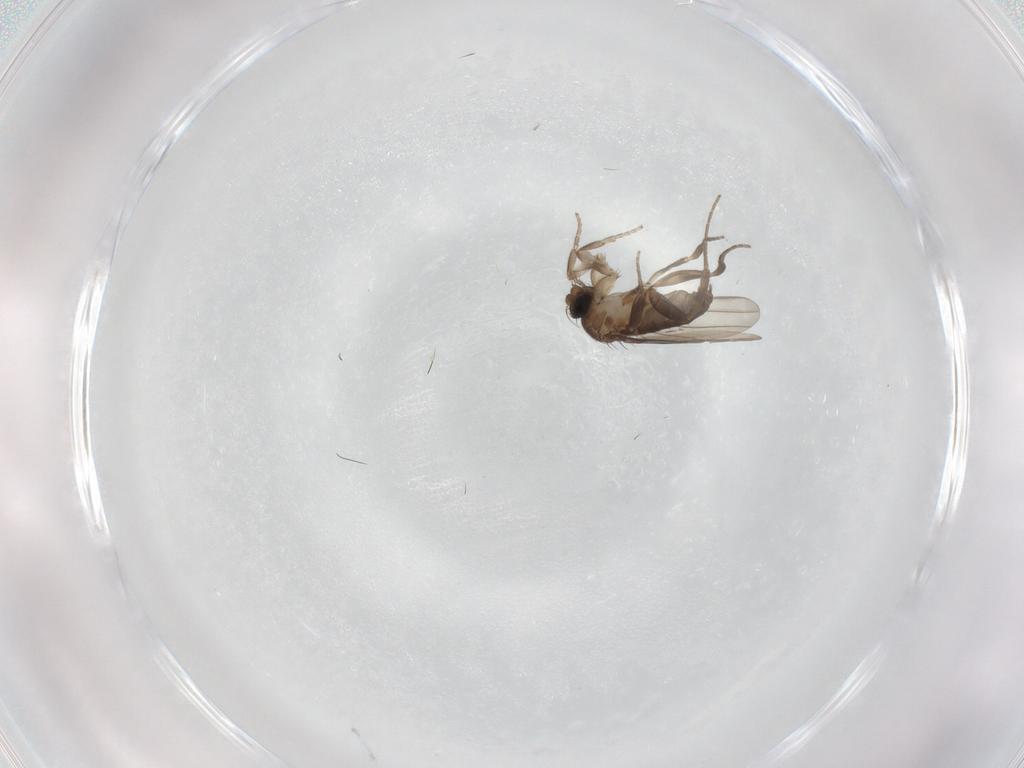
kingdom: Animalia
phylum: Arthropoda
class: Insecta
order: Diptera
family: Phoridae
